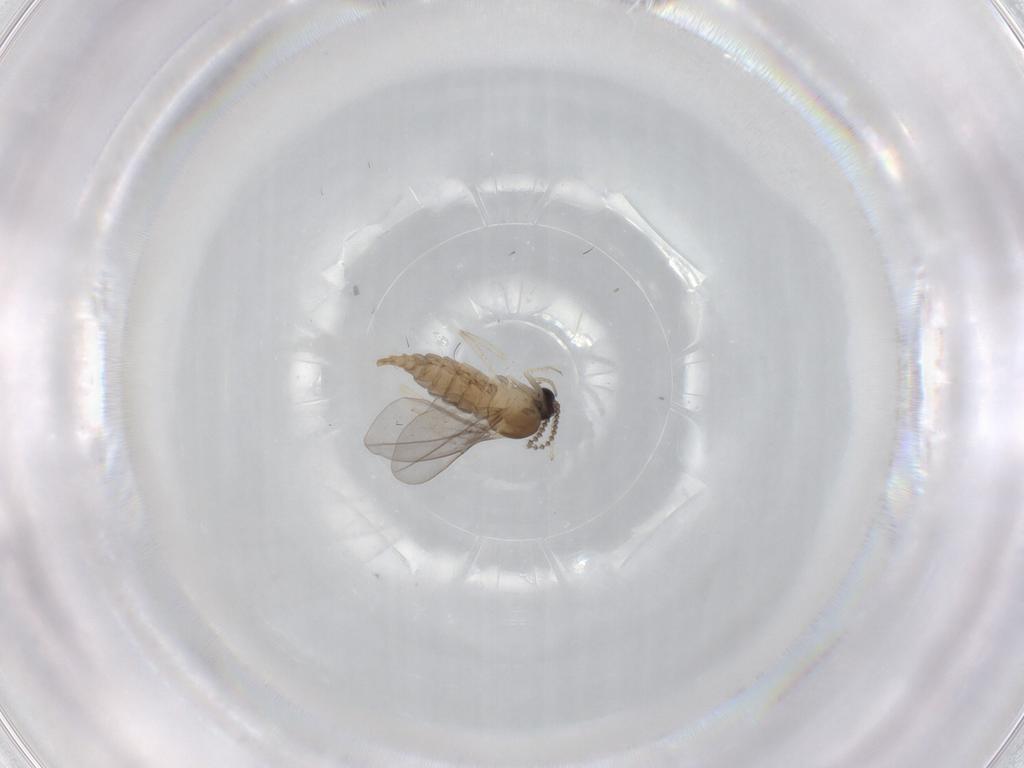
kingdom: Animalia
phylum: Arthropoda
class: Insecta
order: Diptera
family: Cecidomyiidae
